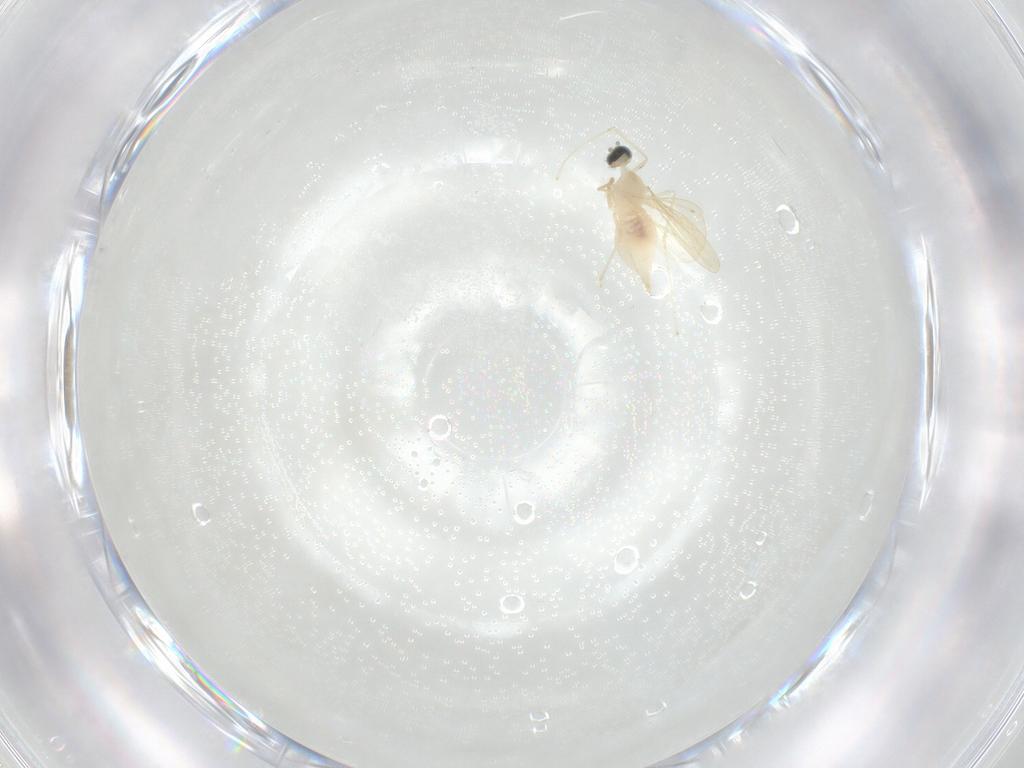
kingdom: Animalia
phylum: Arthropoda
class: Insecta
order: Diptera
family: Cecidomyiidae
